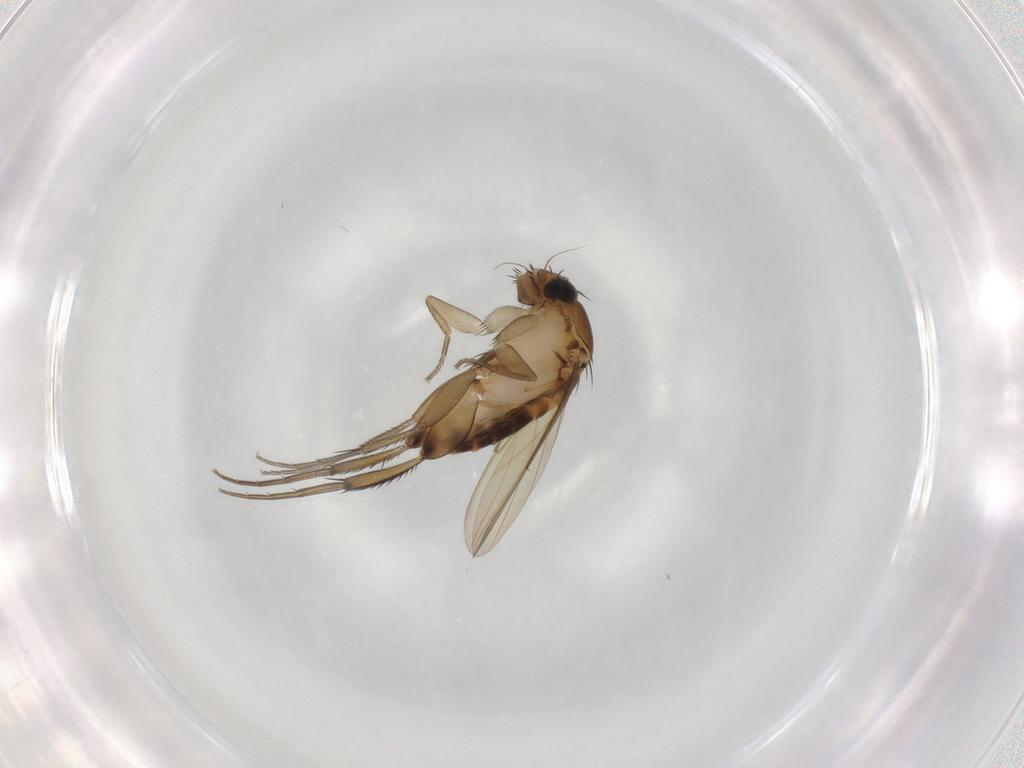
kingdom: Animalia
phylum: Arthropoda
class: Insecta
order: Diptera
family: Phoridae
